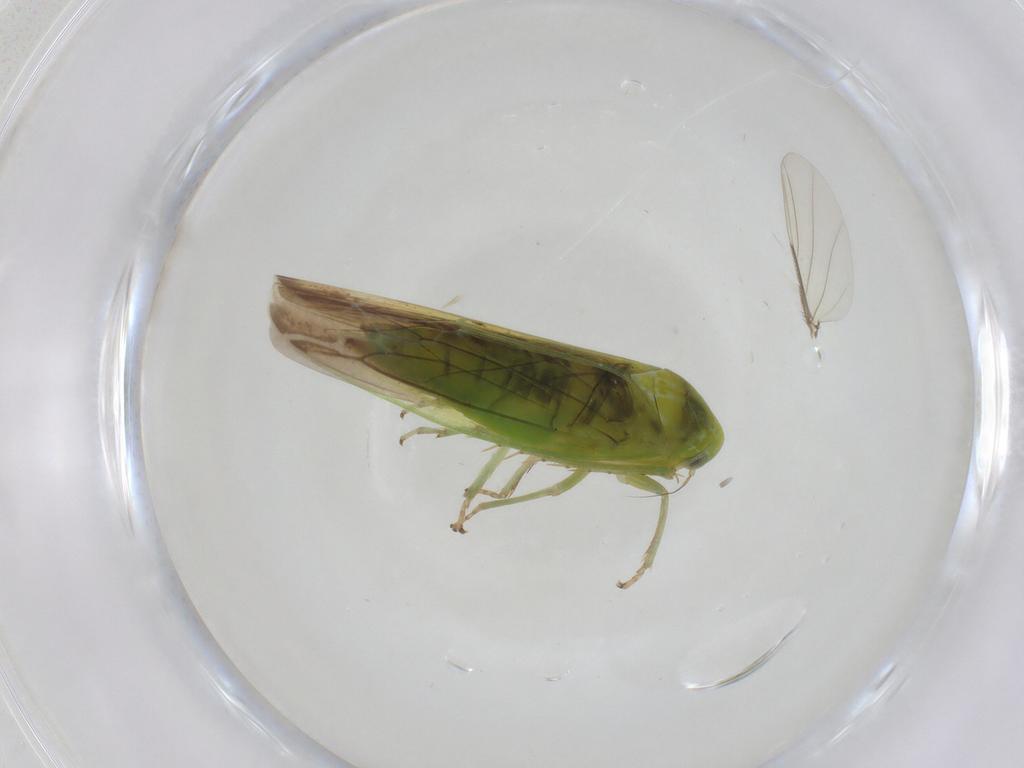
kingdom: Animalia
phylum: Arthropoda
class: Insecta
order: Hemiptera
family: Cicadellidae
